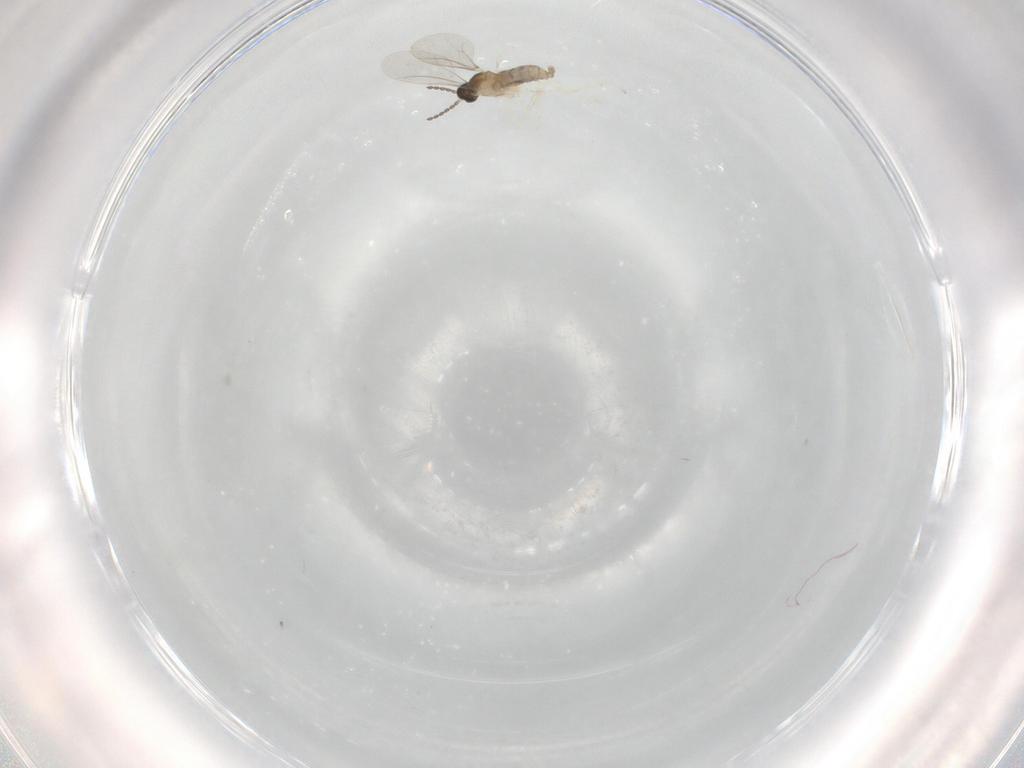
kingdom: Animalia
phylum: Arthropoda
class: Insecta
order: Diptera
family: Cecidomyiidae
